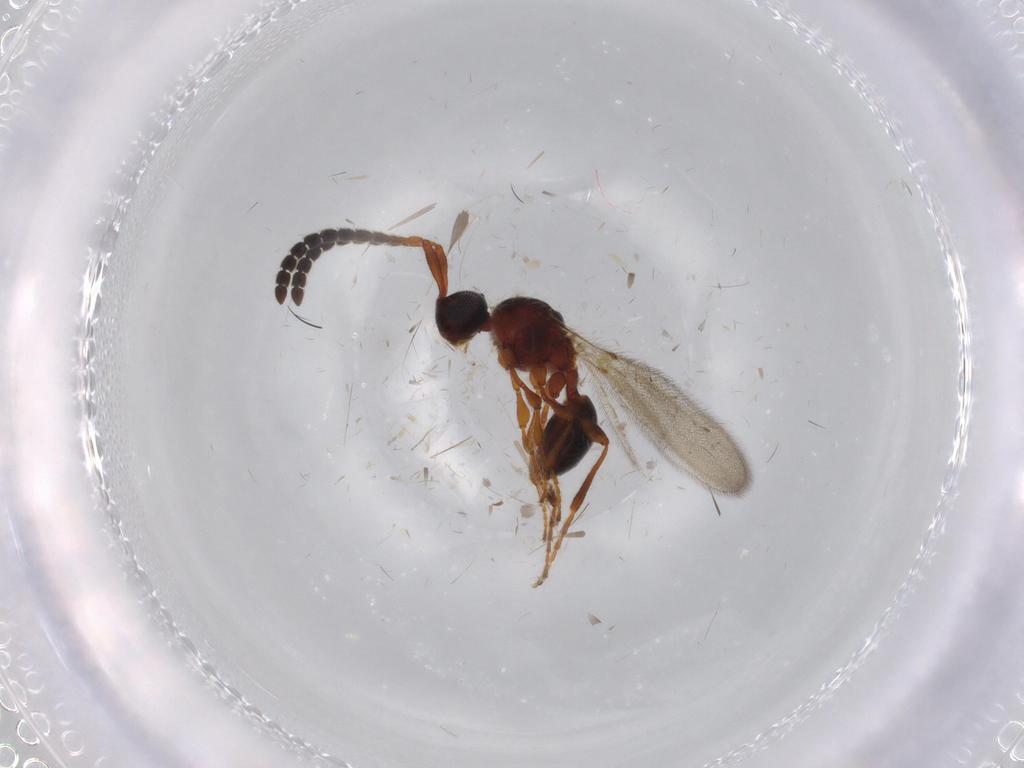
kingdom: Animalia
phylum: Arthropoda
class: Insecta
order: Hymenoptera
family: Diapriidae
